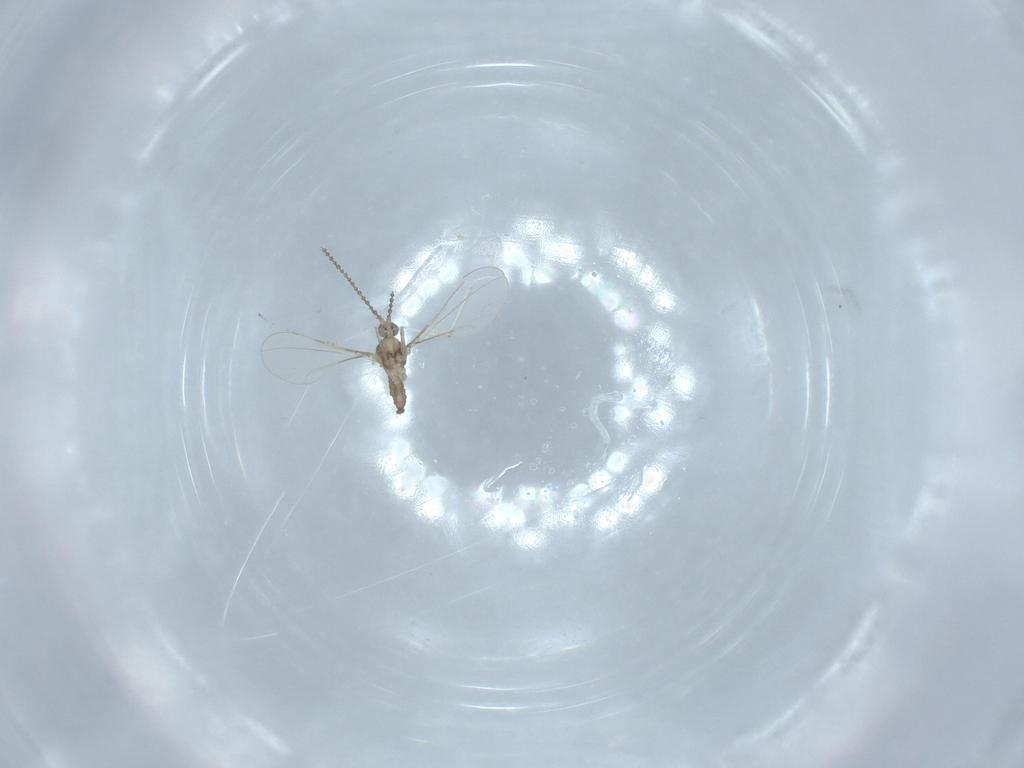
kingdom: Animalia
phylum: Arthropoda
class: Insecta
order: Diptera
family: Cecidomyiidae
